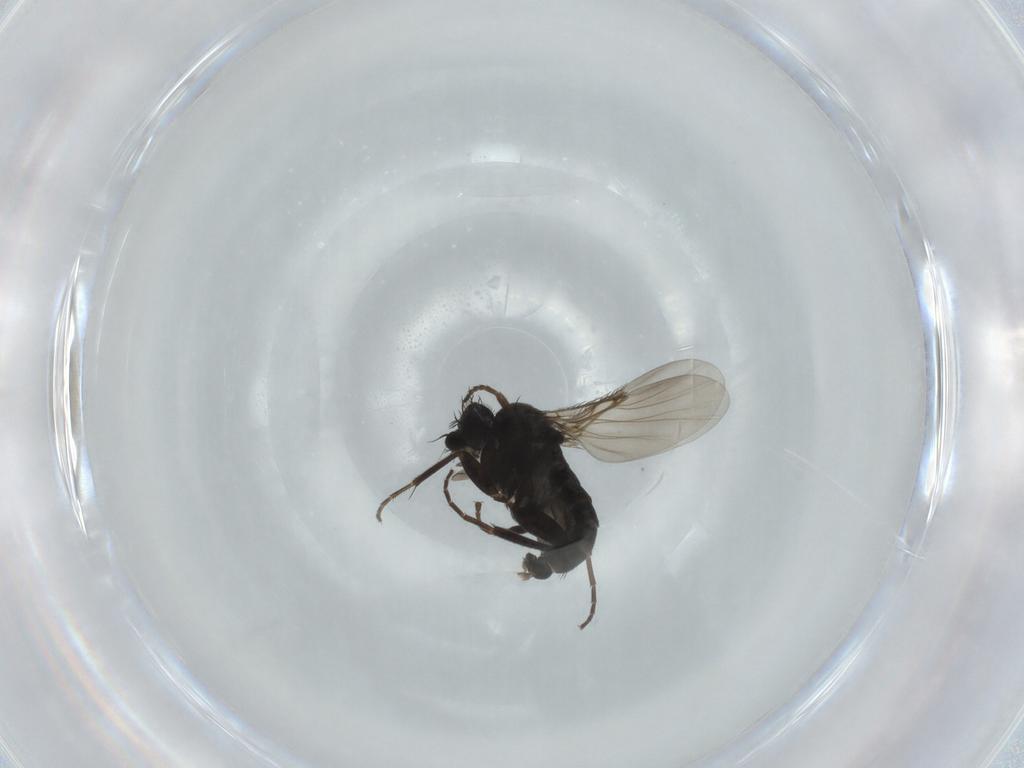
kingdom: Animalia
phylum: Arthropoda
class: Insecta
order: Diptera
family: Phoridae
